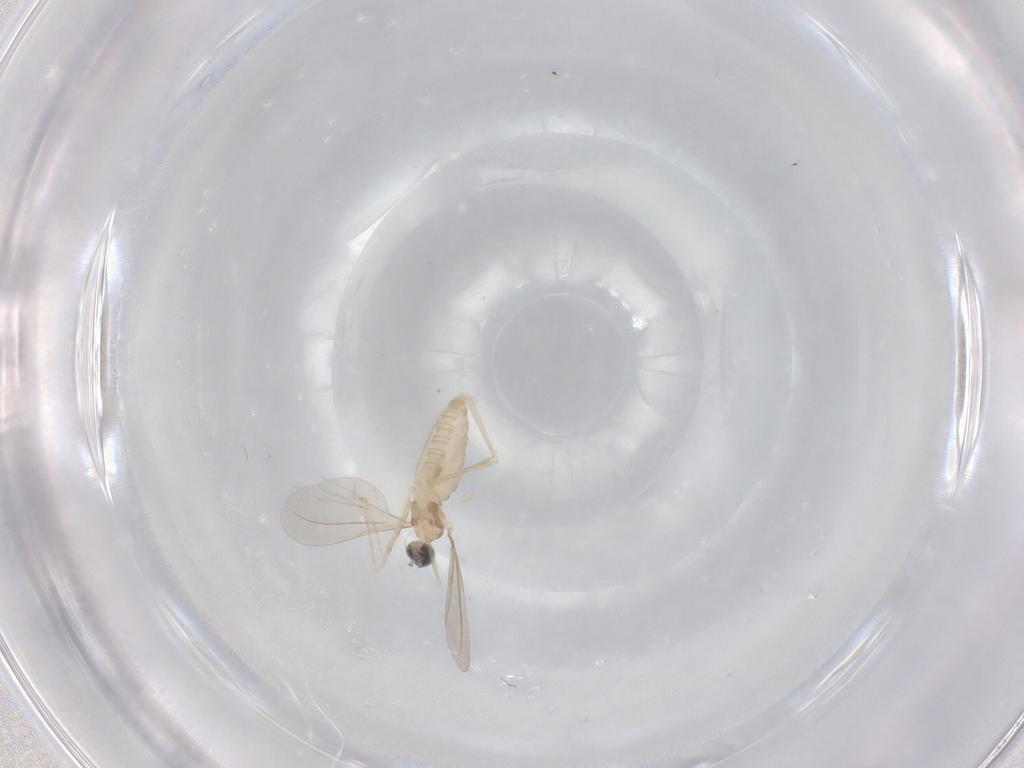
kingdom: Animalia
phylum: Arthropoda
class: Insecta
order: Diptera
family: Cecidomyiidae
